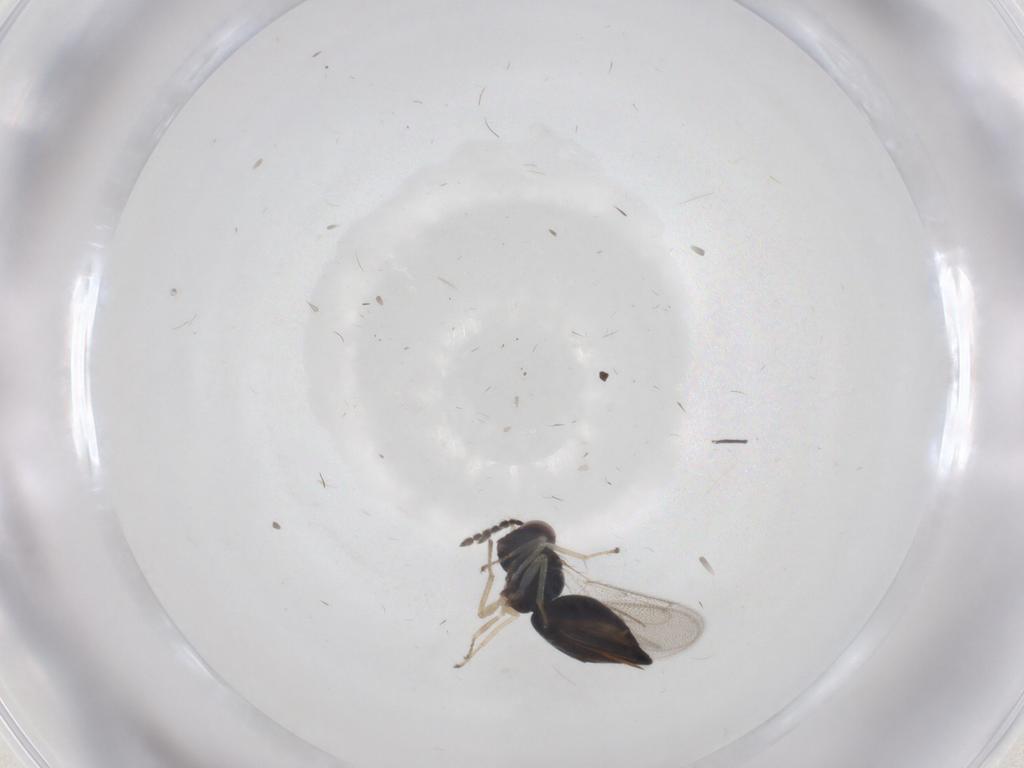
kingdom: Animalia
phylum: Arthropoda
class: Insecta
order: Hymenoptera
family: Eulophidae
